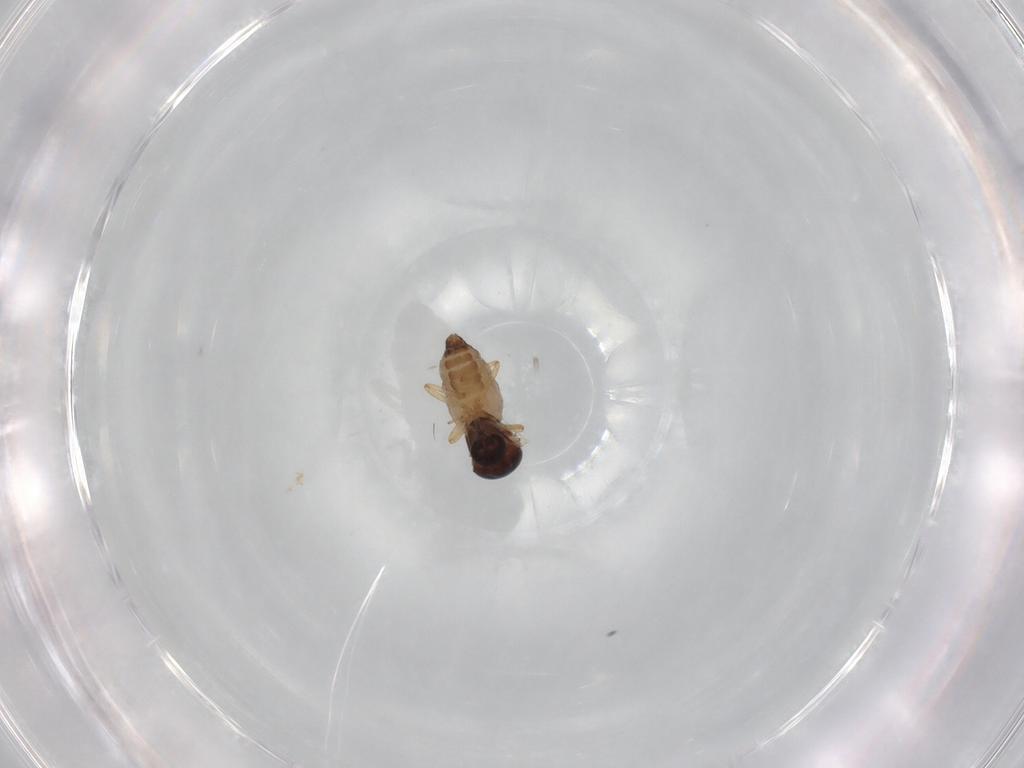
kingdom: Animalia
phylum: Arthropoda
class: Insecta
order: Diptera
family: Ceratopogonidae
